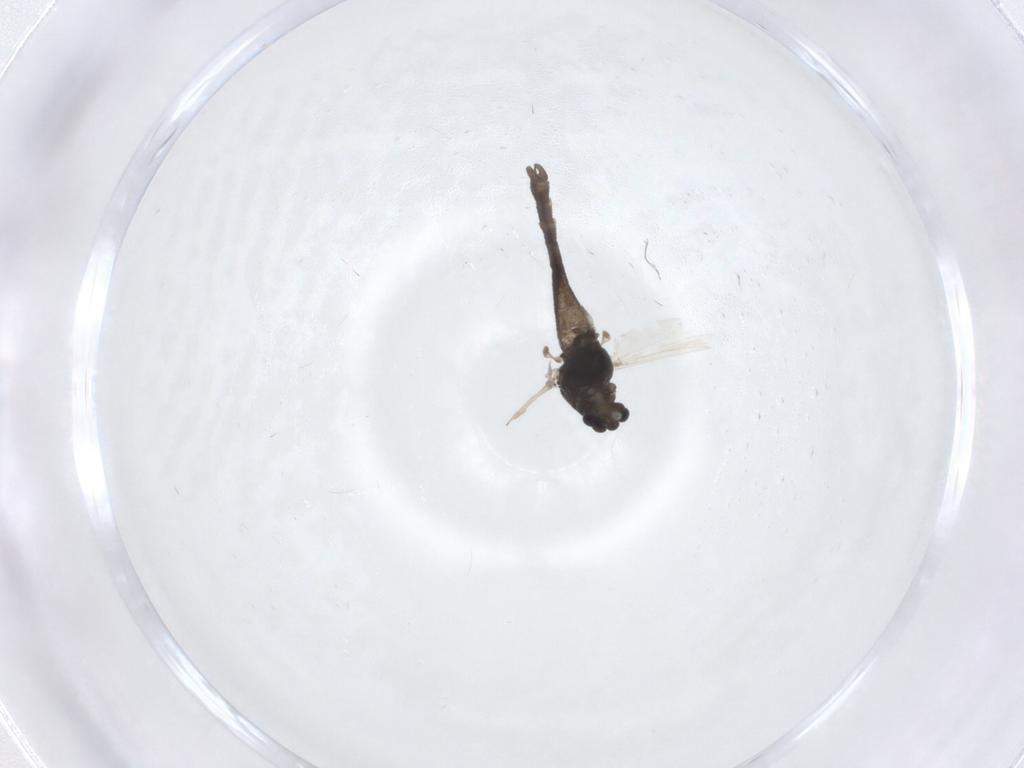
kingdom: Animalia
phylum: Arthropoda
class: Insecta
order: Diptera
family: Chironomidae
